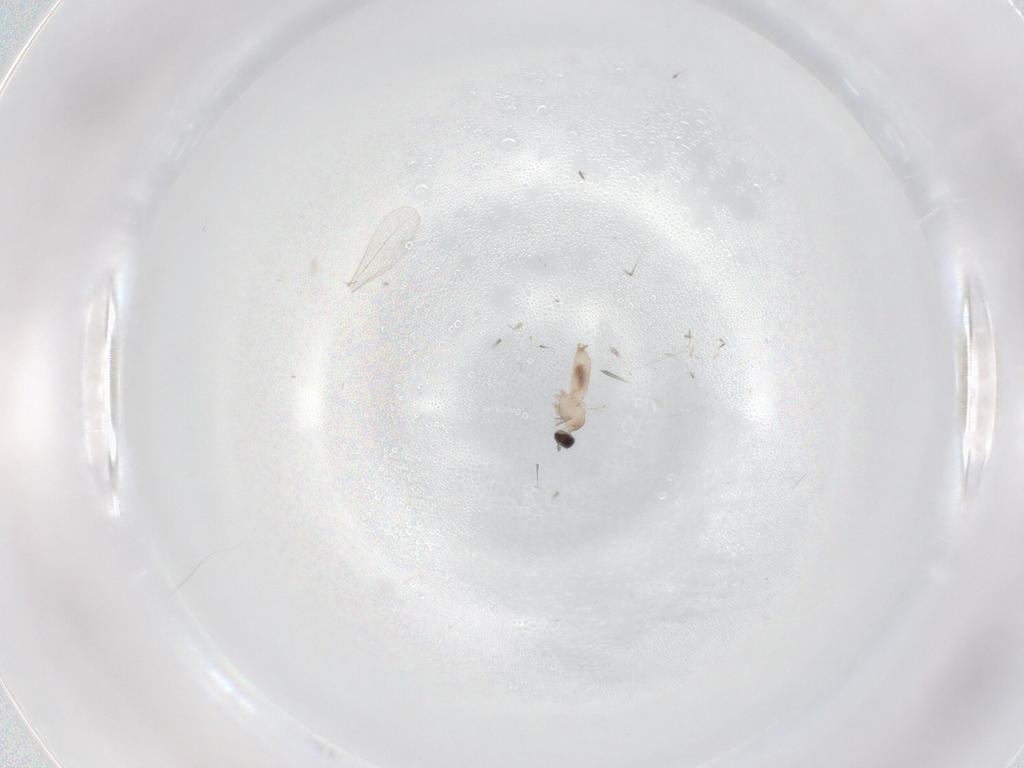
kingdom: Animalia
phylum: Arthropoda
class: Insecta
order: Diptera
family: Cecidomyiidae
